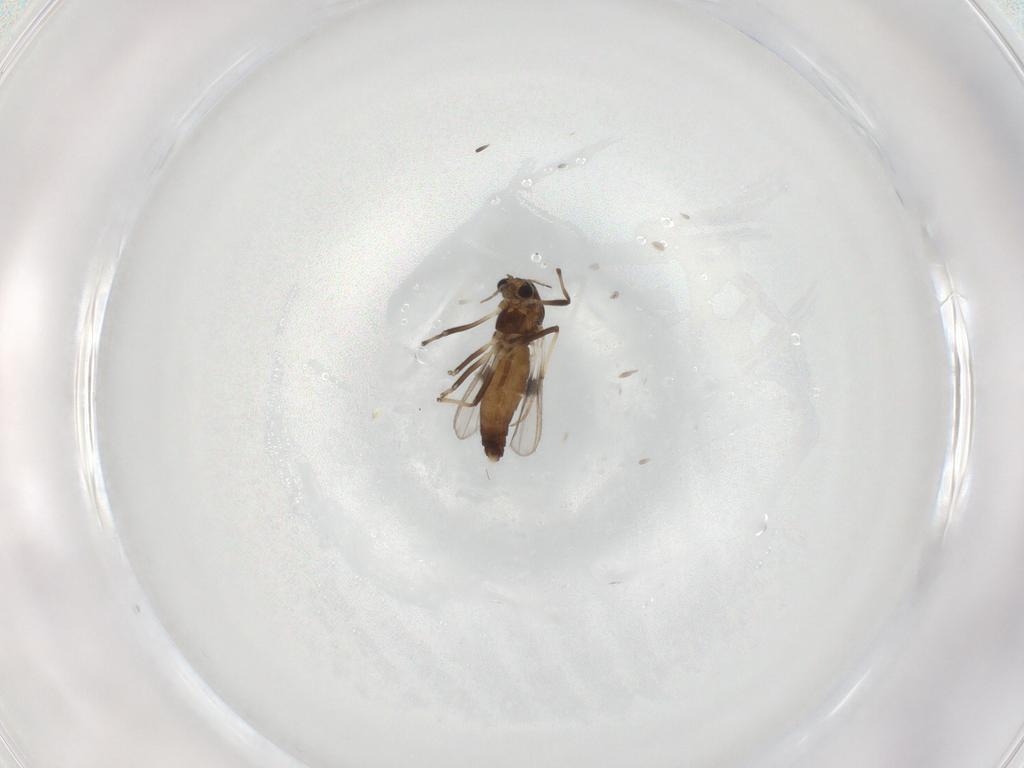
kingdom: Animalia
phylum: Arthropoda
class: Insecta
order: Diptera
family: Chironomidae
